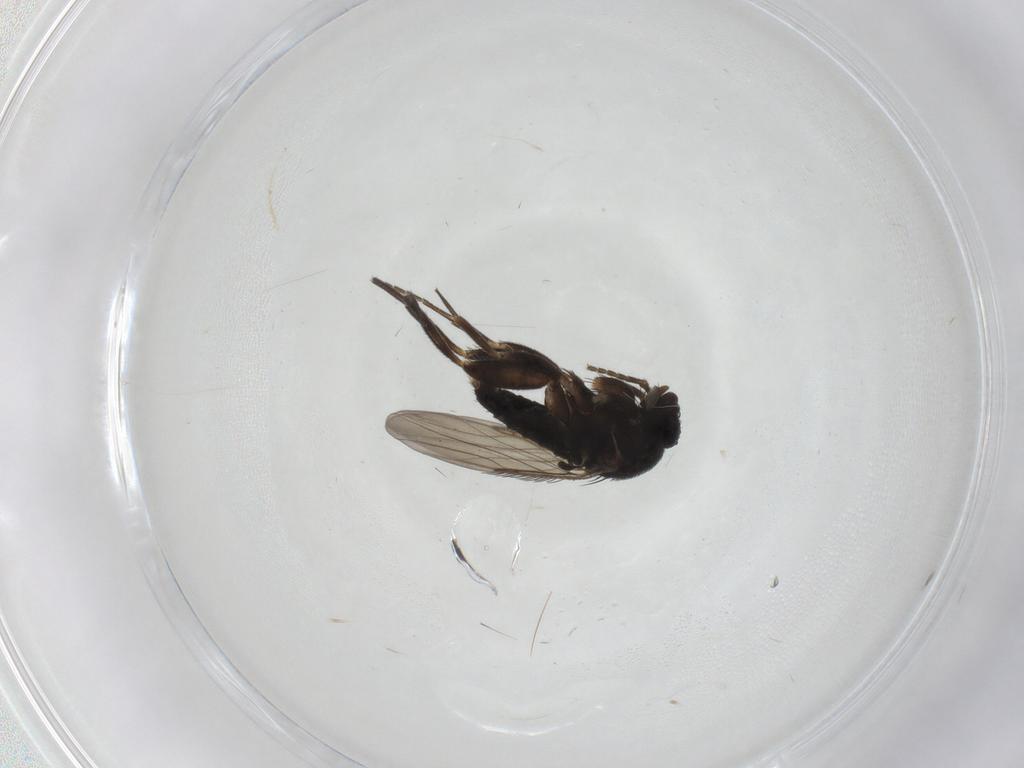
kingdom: Animalia
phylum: Arthropoda
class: Insecta
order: Diptera
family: Phoridae
